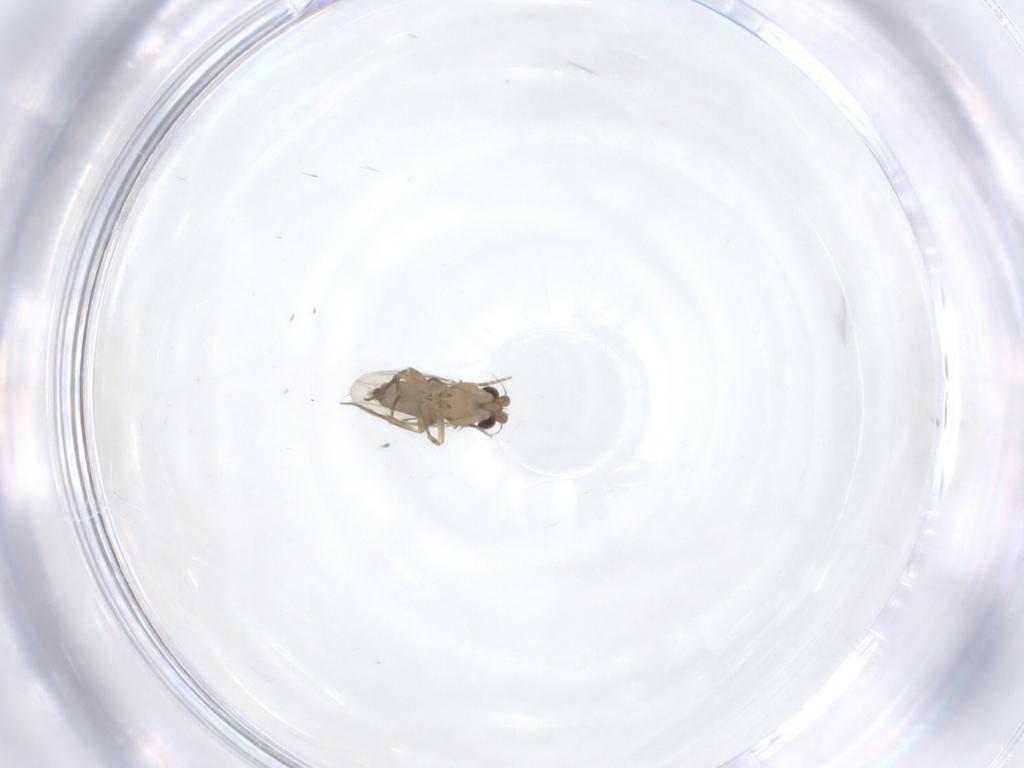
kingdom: Animalia
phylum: Arthropoda
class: Insecta
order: Diptera
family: Phoridae
